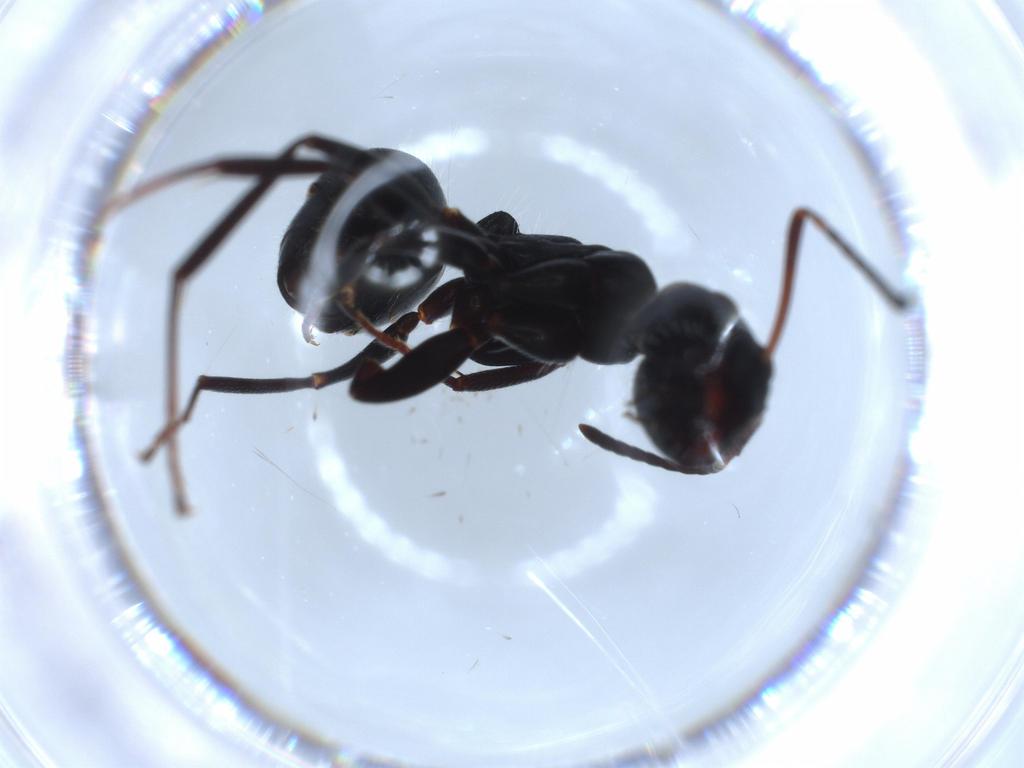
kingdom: Animalia
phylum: Arthropoda
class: Insecta
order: Hymenoptera
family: Formicidae
